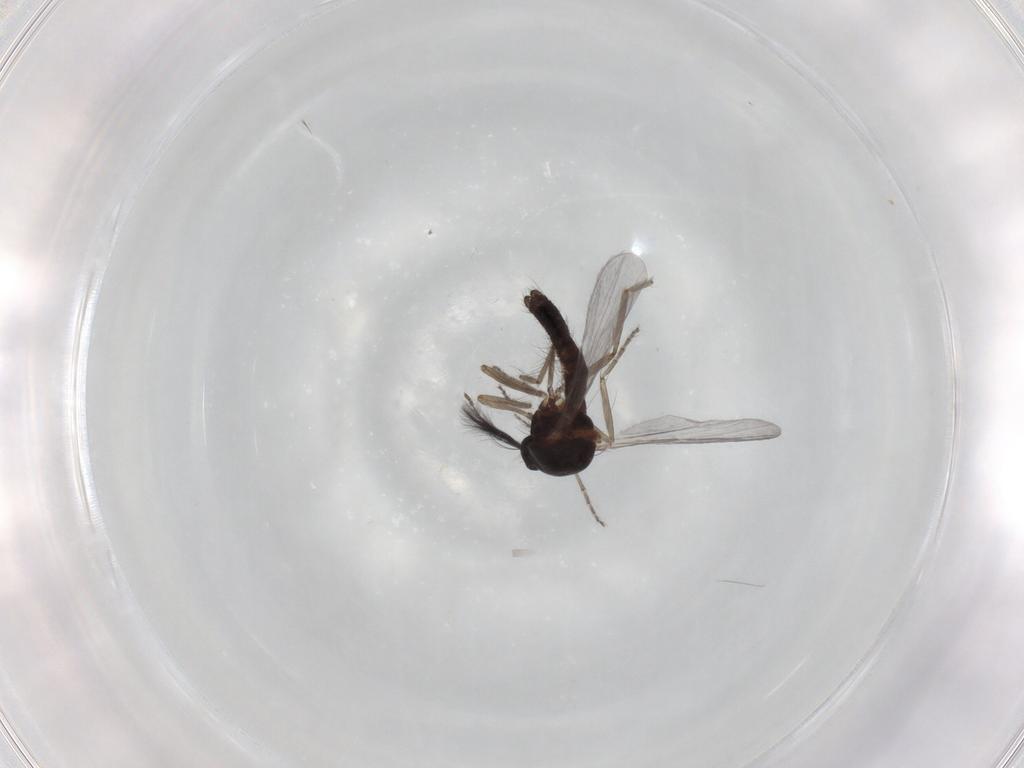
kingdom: Animalia
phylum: Arthropoda
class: Insecta
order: Diptera
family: Ceratopogonidae
